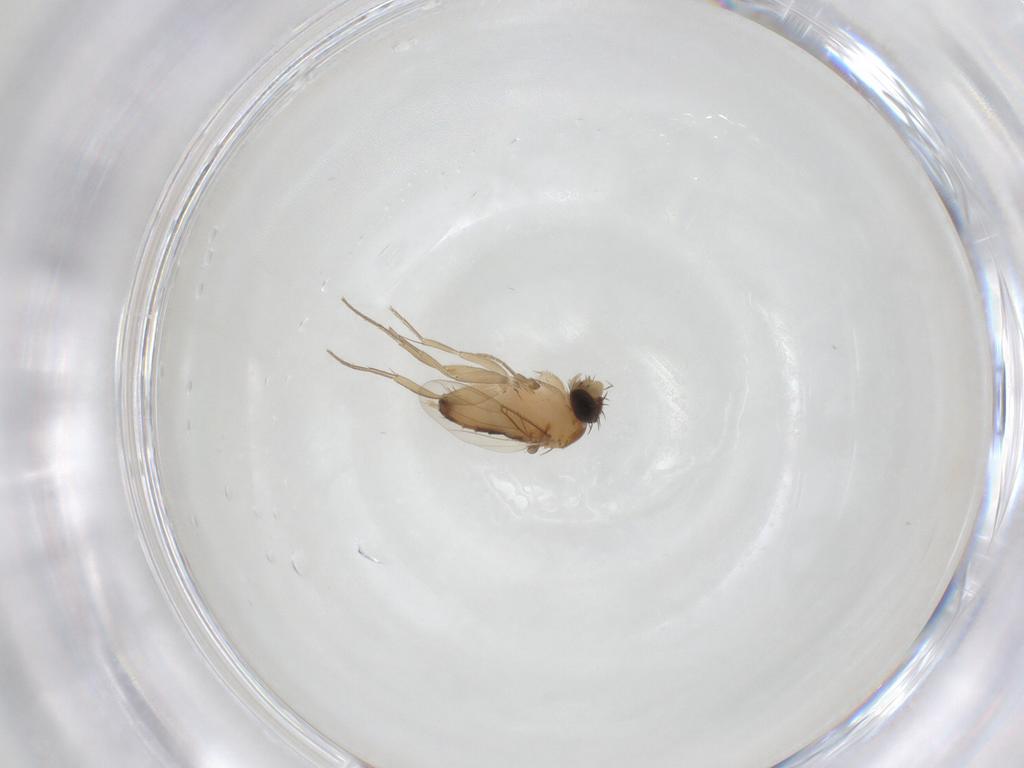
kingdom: Animalia
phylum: Arthropoda
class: Insecta
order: Diptera
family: Phoridae
